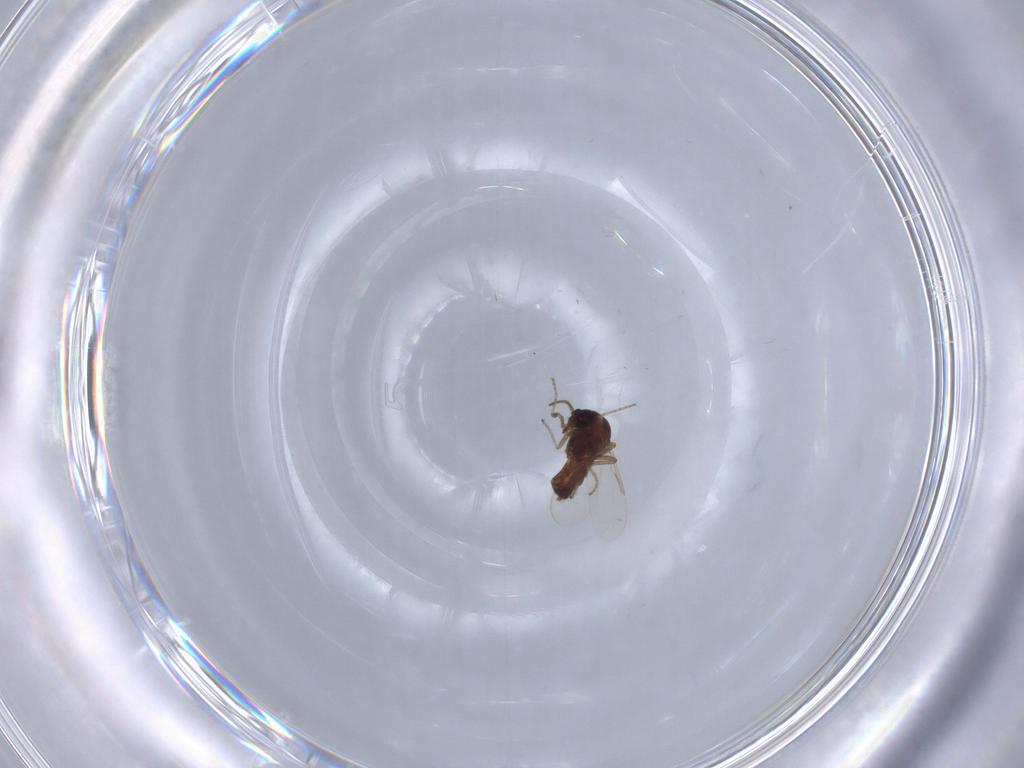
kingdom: Animalia
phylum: Arthropoda
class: Insecta
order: Diptera
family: Ceratopogonidae
